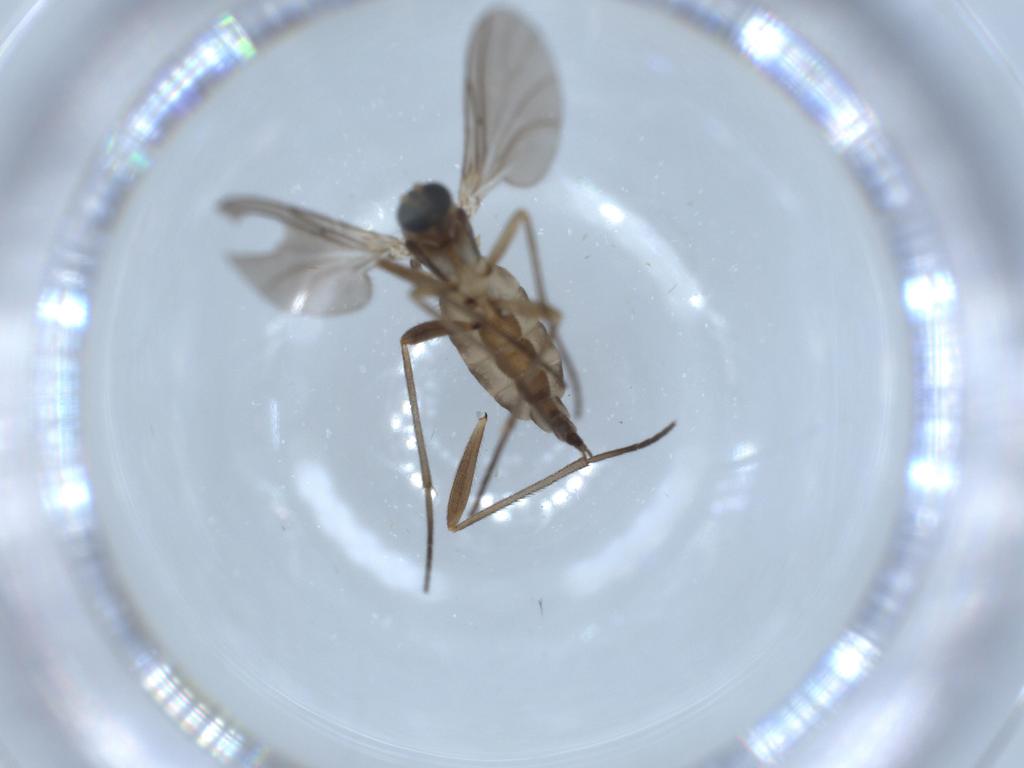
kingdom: Animalia
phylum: Arthropoda
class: Insecta
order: Diptera
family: Sciaridae
